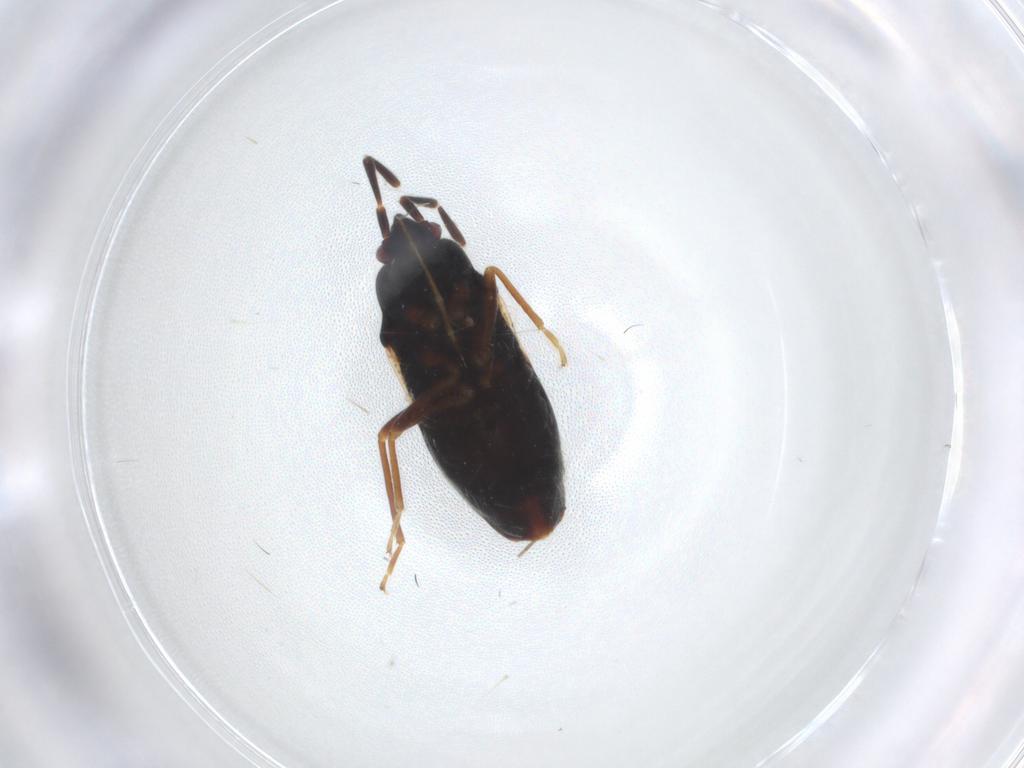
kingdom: Animalia
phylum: Arthropoda
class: Insecta
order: Hemiptera
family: Rhyparochromidae
